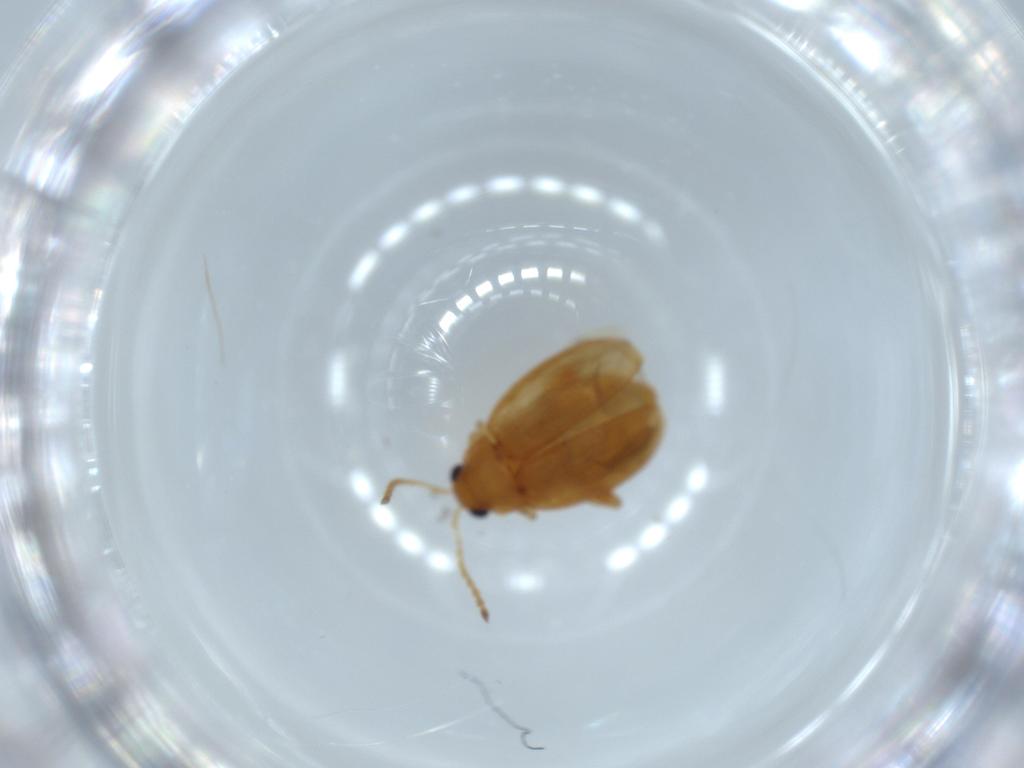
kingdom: Animalia
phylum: Arthropoda
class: Insecta
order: Coleoptera
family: Chrysomelidae
